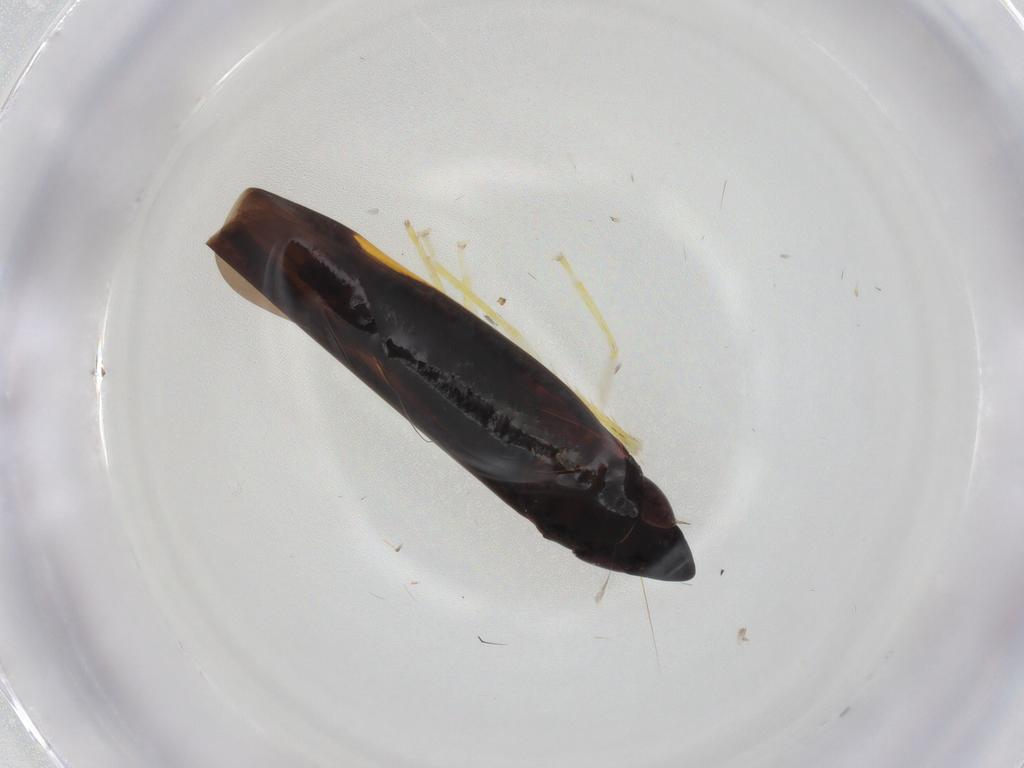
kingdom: Animalia
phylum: Arthropoda
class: Insecta
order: Hemiptera
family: Cicadellidae
